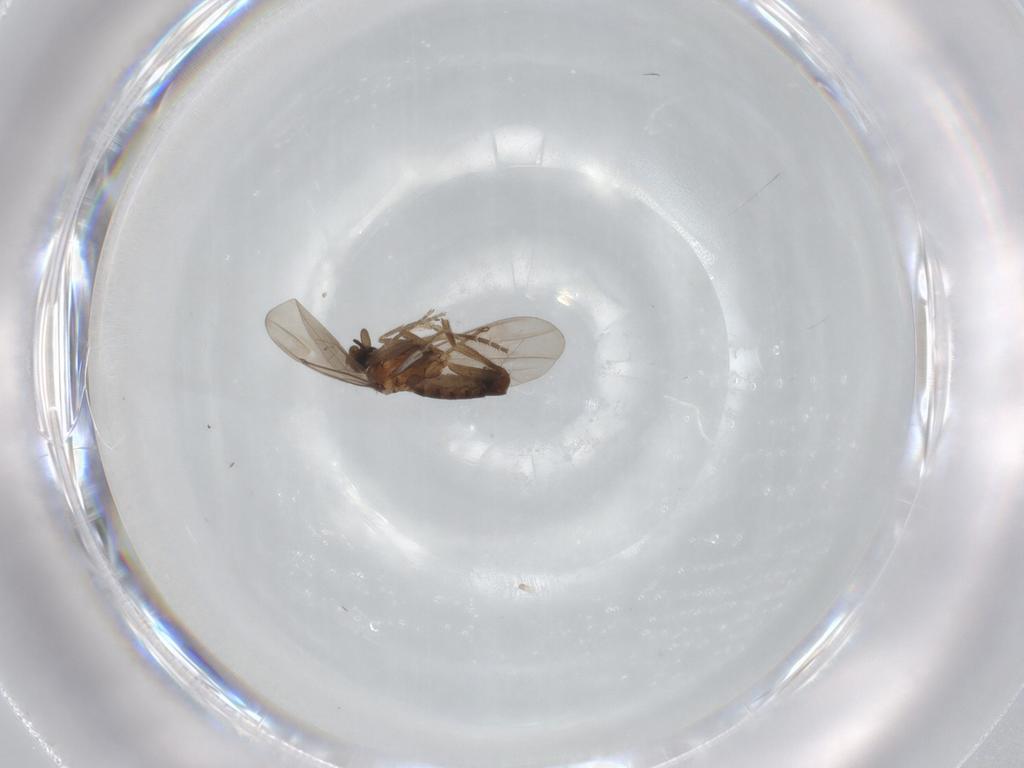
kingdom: Animalia
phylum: Arthropoda
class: Insecta
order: Diptera
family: Phoridae
